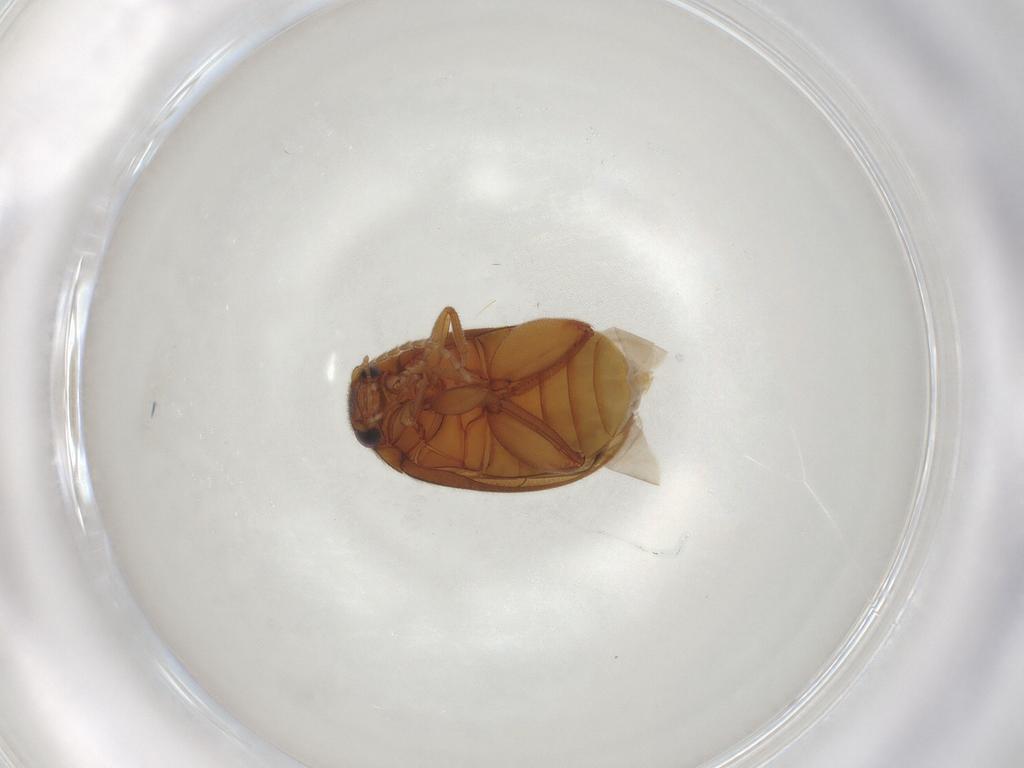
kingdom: Animalia
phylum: Arthropoda
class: Insecta
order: Coleoptera
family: Scirtidae
